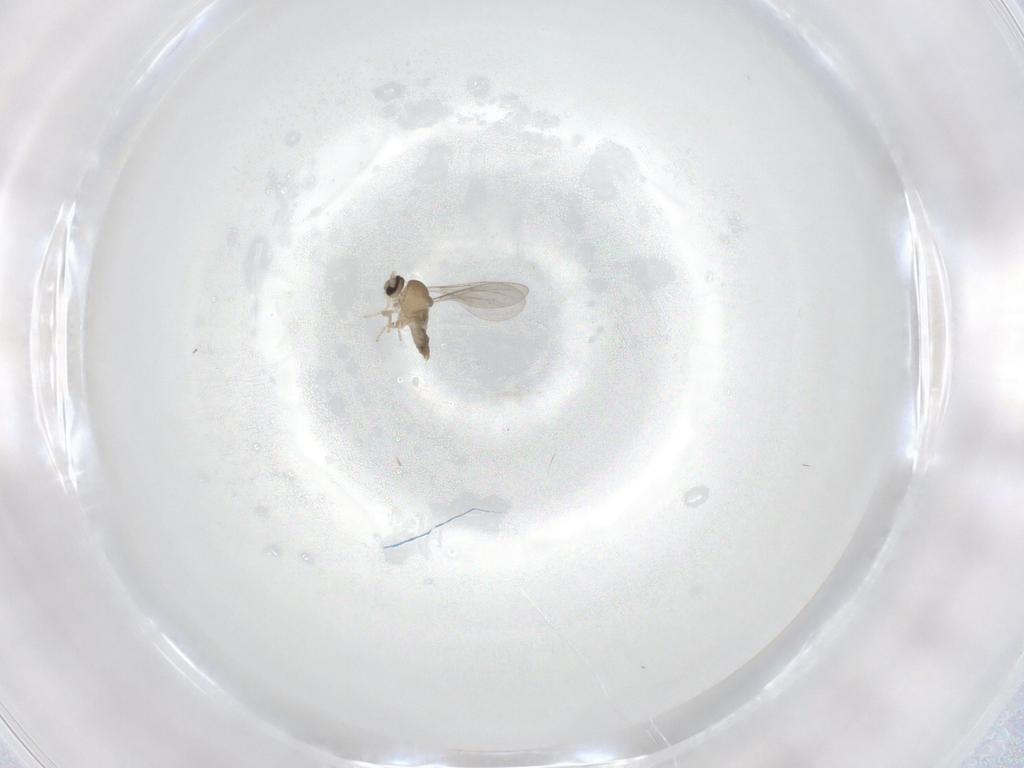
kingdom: Animalia
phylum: Arthropoda
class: Insecta
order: Diptera
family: Cecidomyiidae
